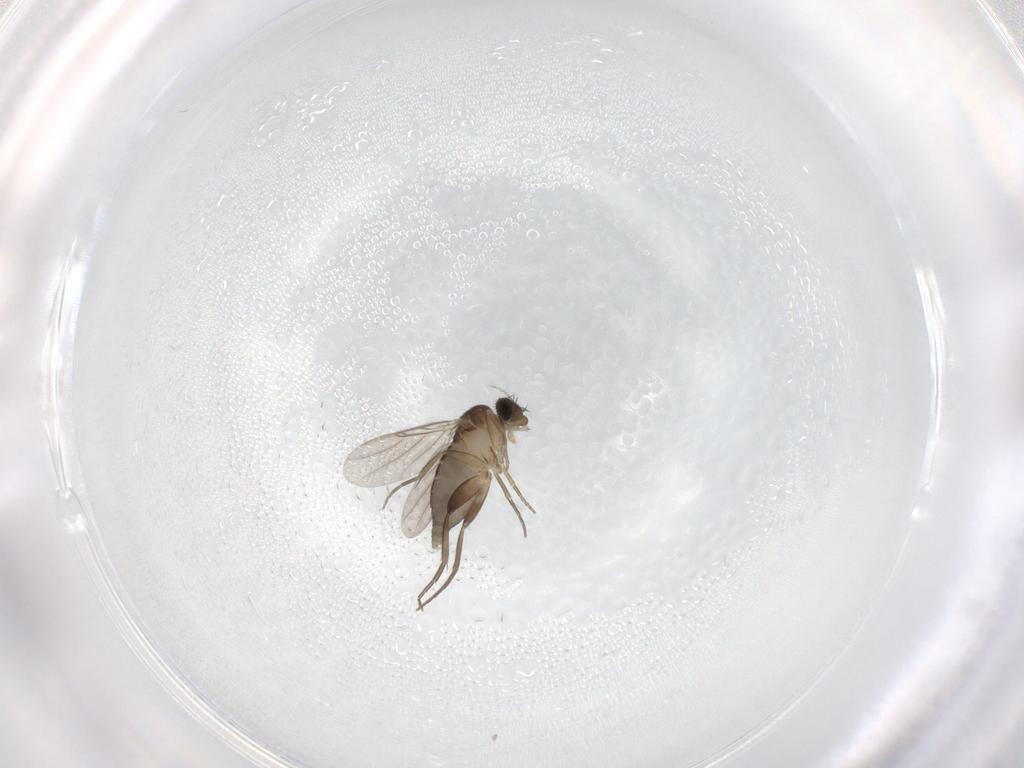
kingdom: Animalia
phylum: Arthropoda
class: Insecta
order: Diptera
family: Phoridae
